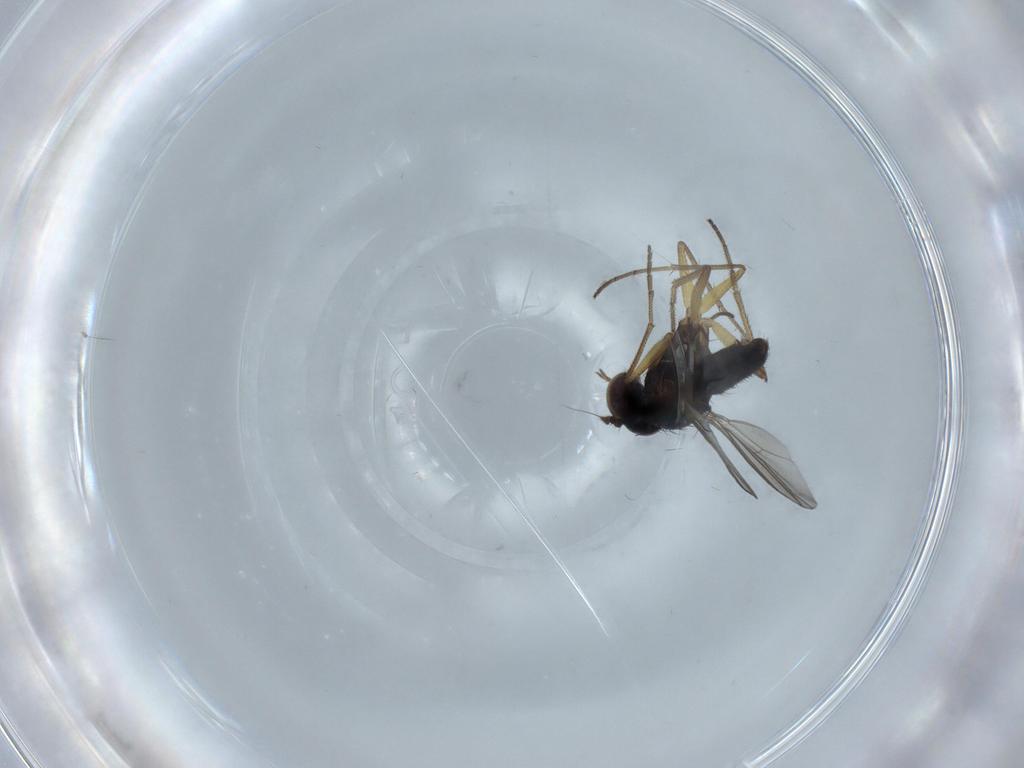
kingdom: Animalia
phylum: Arthropoda
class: Insecta
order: Diptera
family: Dolichopodidae
